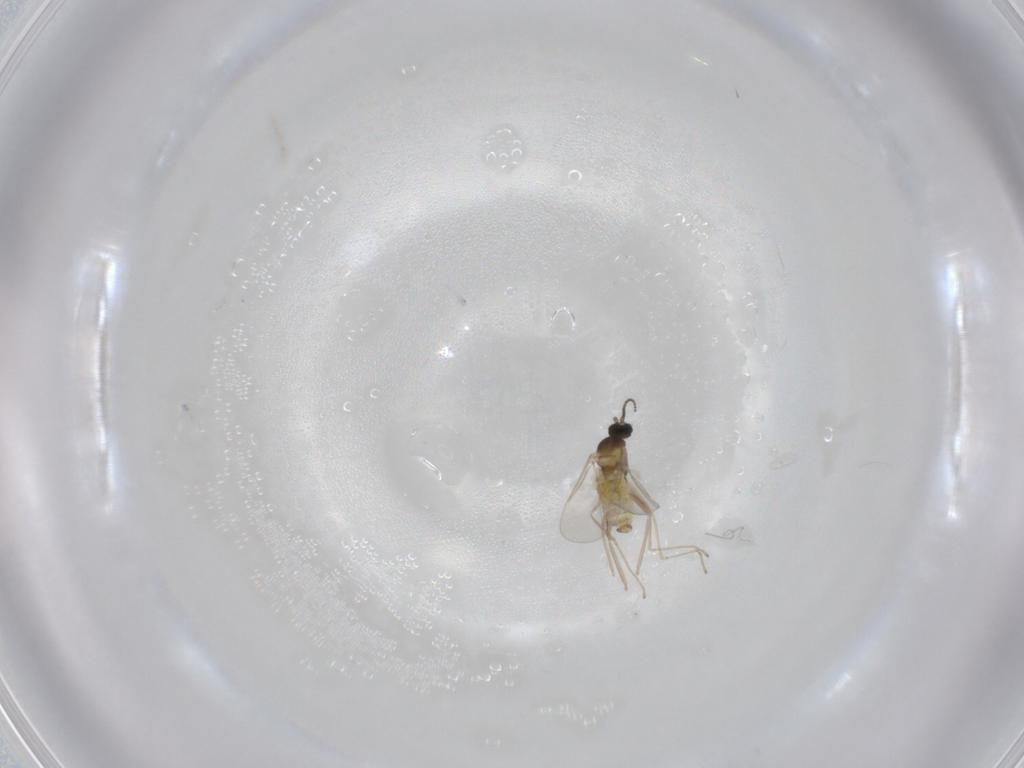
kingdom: Animalia
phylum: Arthropoda
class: Insecta
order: Diptera
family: Cecidomyiidae
